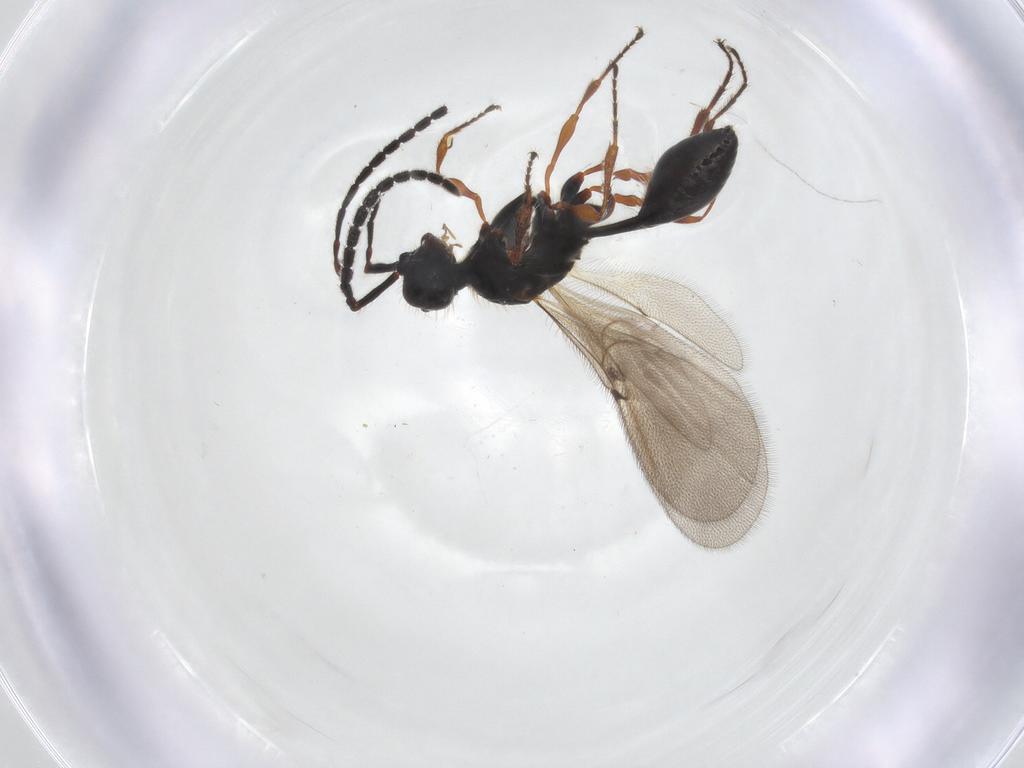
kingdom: Animalia
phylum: Arthropoda
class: Insecta
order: Hymenoptera
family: Diapriidae
